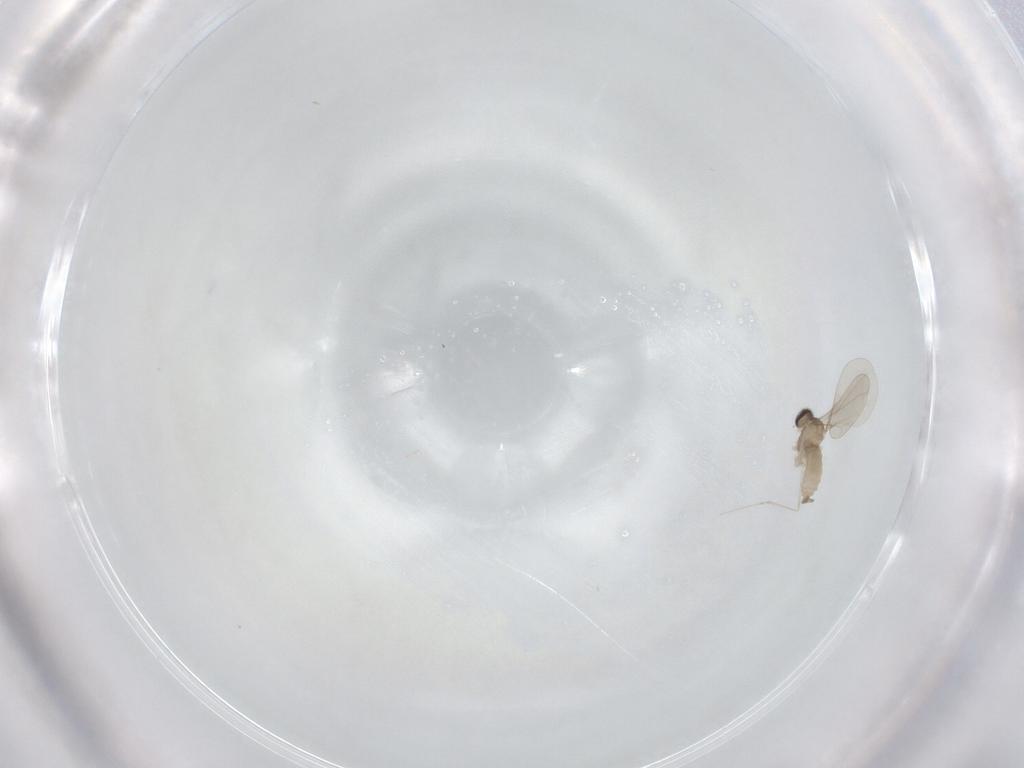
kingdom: Animalia
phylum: Arthropoda
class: Insecta
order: Diptera
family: Cecidomyiidae
